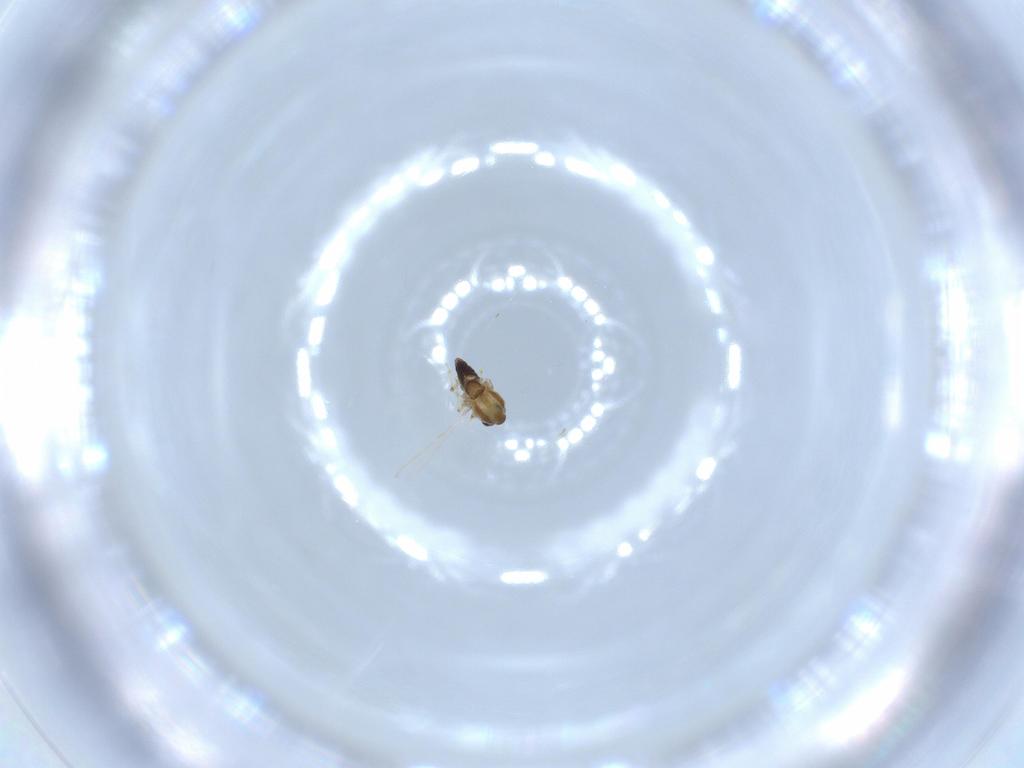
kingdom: Animalia
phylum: Arthropoda
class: Insecta
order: Diptera
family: Chironomidae
